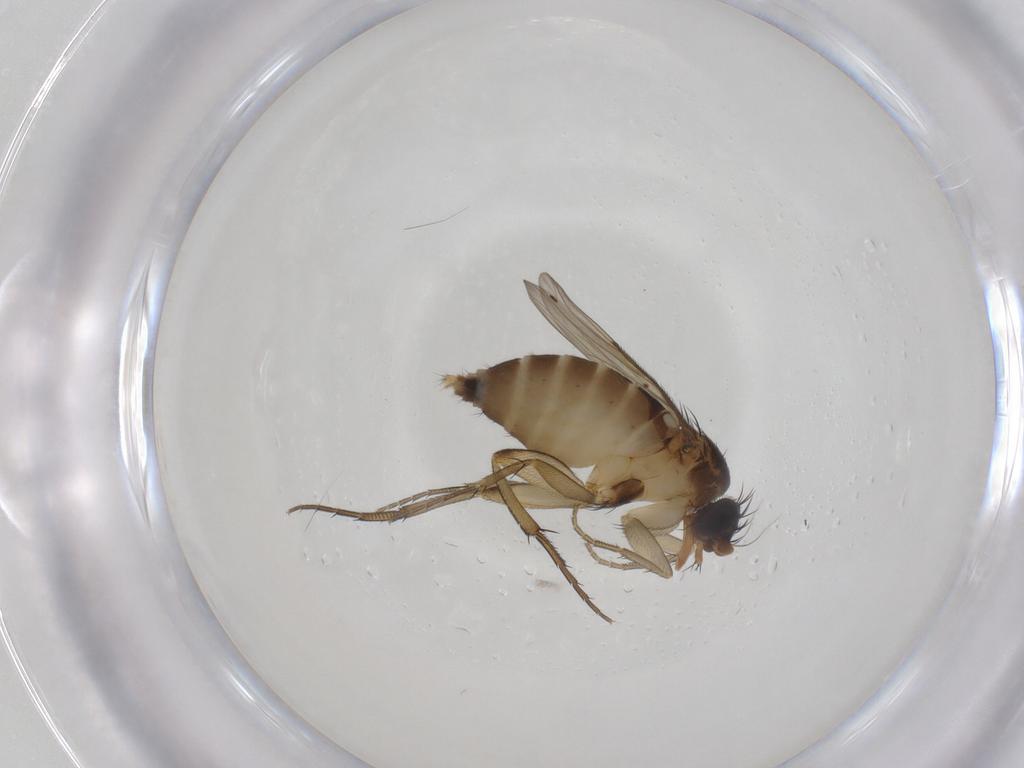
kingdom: Animalia
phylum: Arthropoda
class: Insecta
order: Diptera
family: Phoridae
